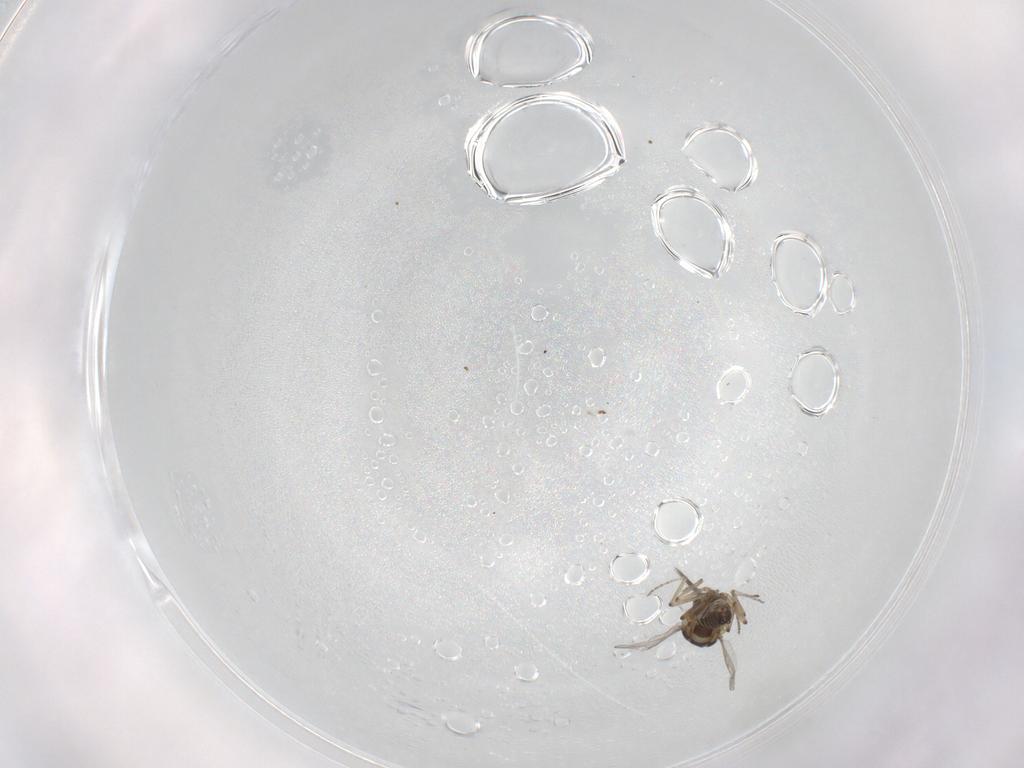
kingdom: Animalia
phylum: Arthropoda
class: Insecta
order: Diptera
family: Ceratopogonidae
